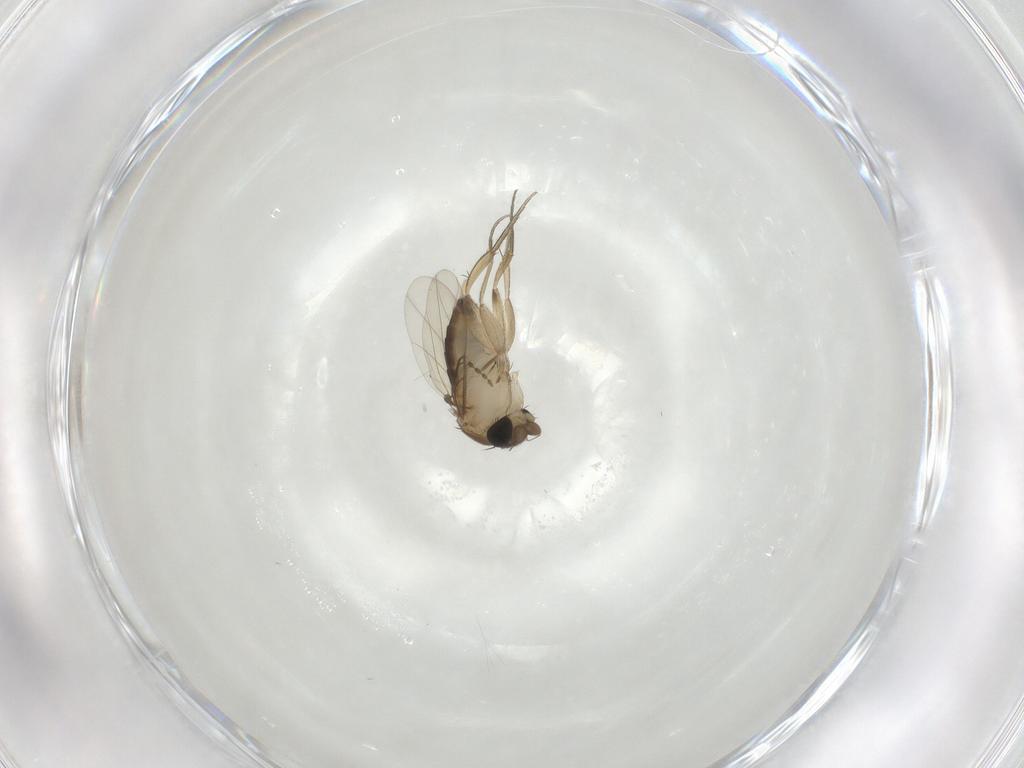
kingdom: Animalia
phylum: Arthropoda
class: Insecta
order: Diptera
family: Phoridae
